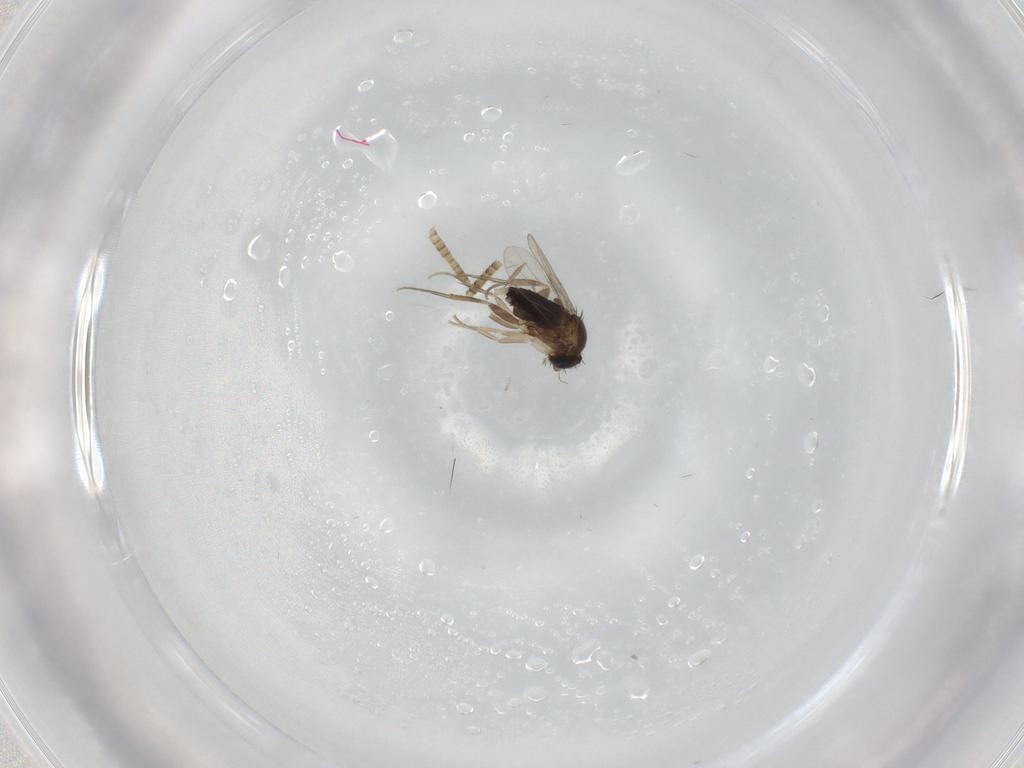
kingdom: Animalia
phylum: Arthropoda
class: Insecta
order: Diptera
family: Phoridae
